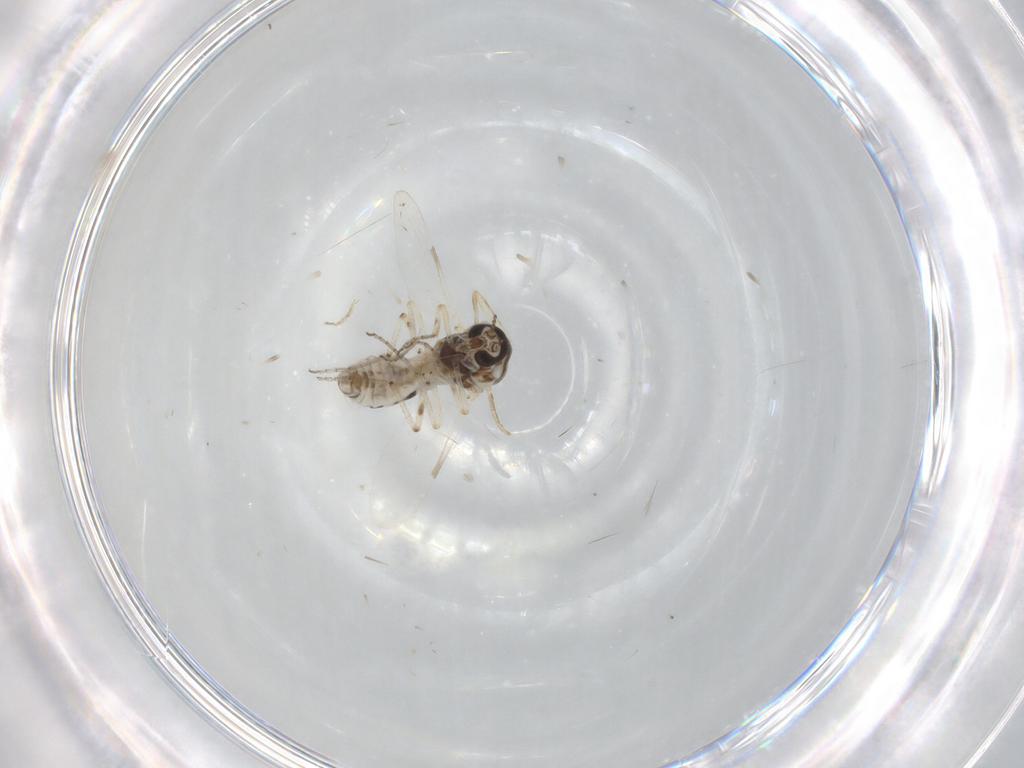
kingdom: Animalia
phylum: Arthropoda
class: Insecta
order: Diptera
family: Ceratopogonidae
